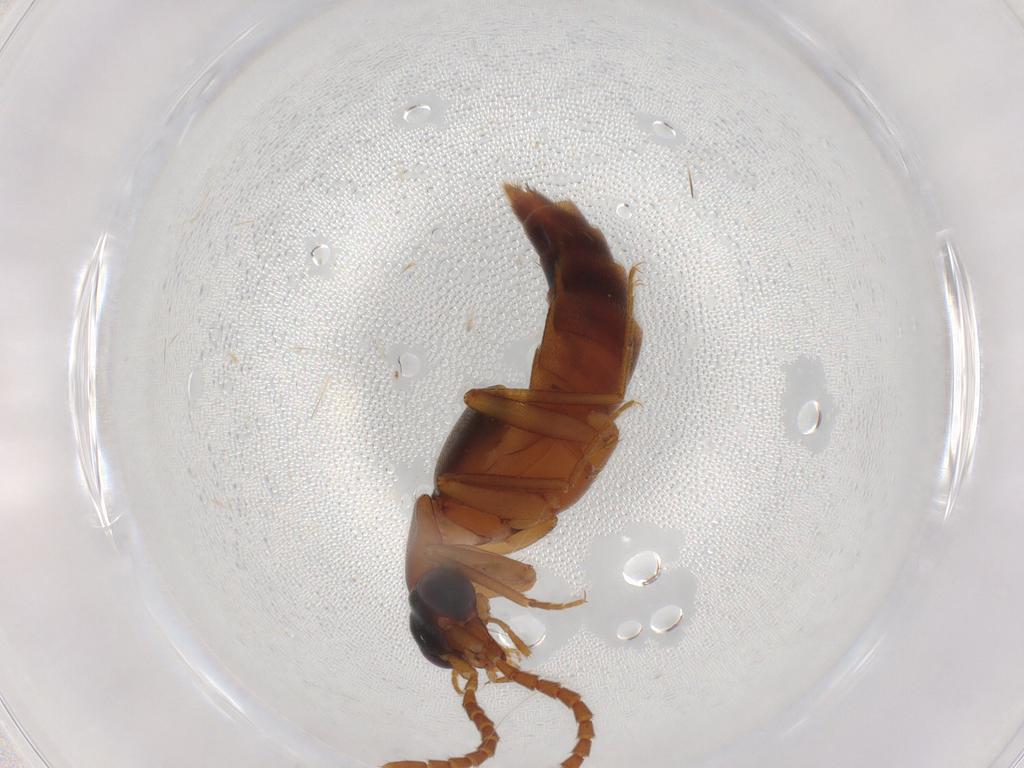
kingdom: Animalia
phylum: Arthropoda
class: Insecta
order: Coleoptera
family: Staphylinidae
